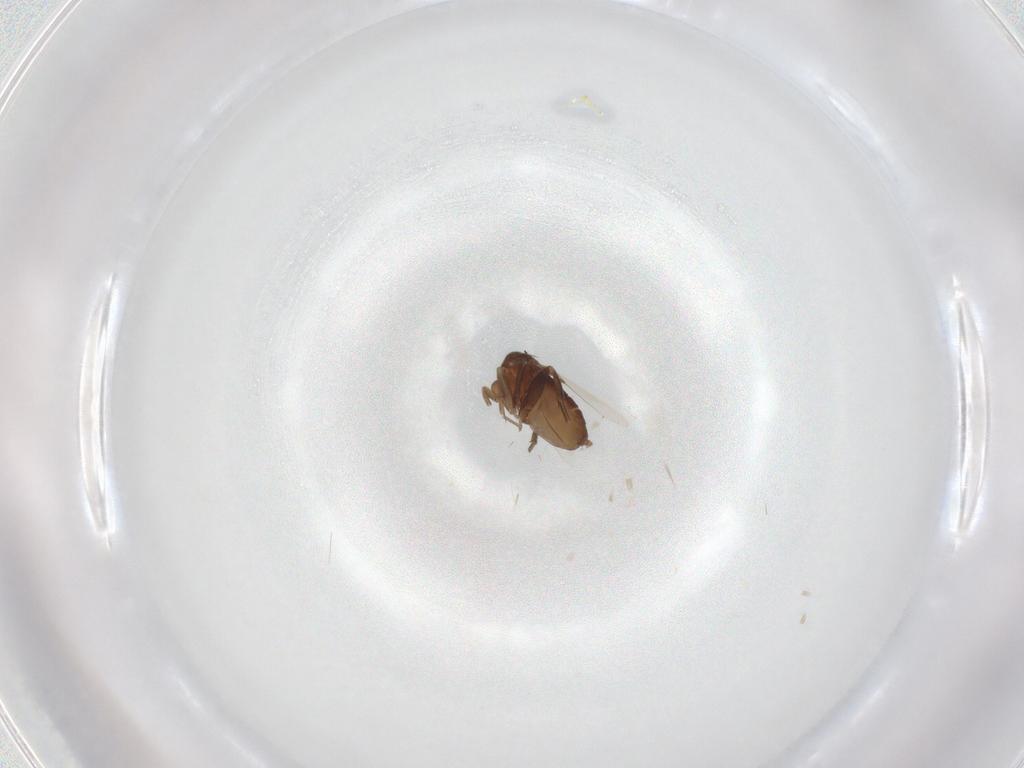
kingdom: Animalia
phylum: Arthropoda
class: Insecta
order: Diptera
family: Phoridae
